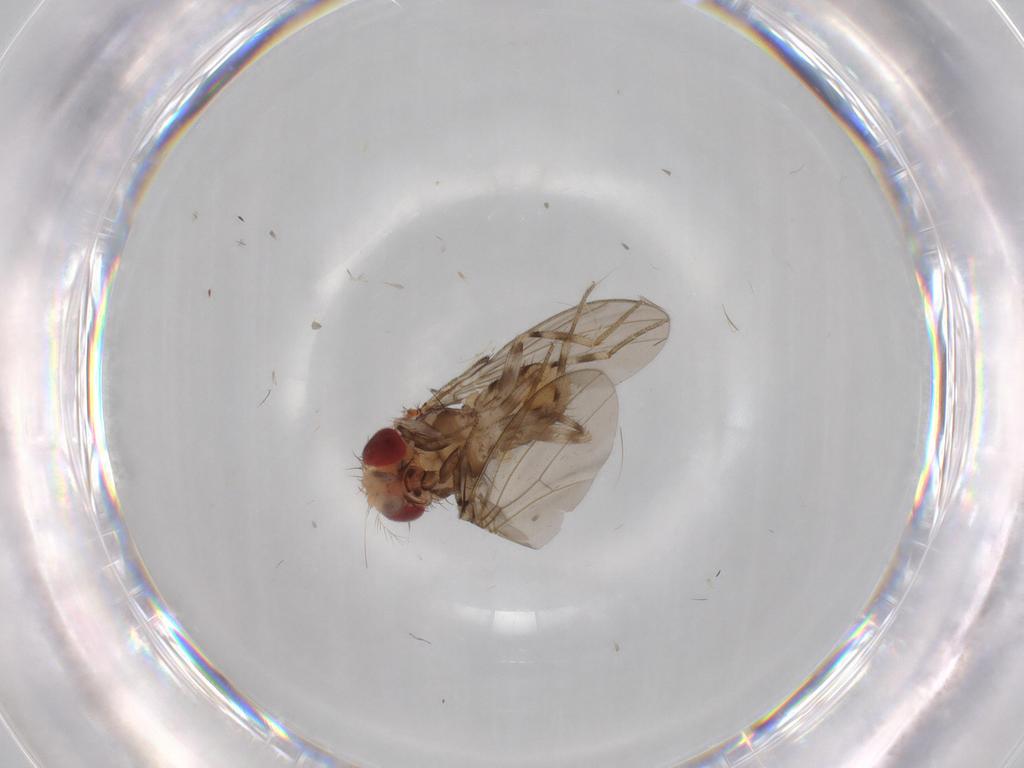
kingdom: Animalia
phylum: Arthropoda
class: Insecta
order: Diptera
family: Drosophilidae
